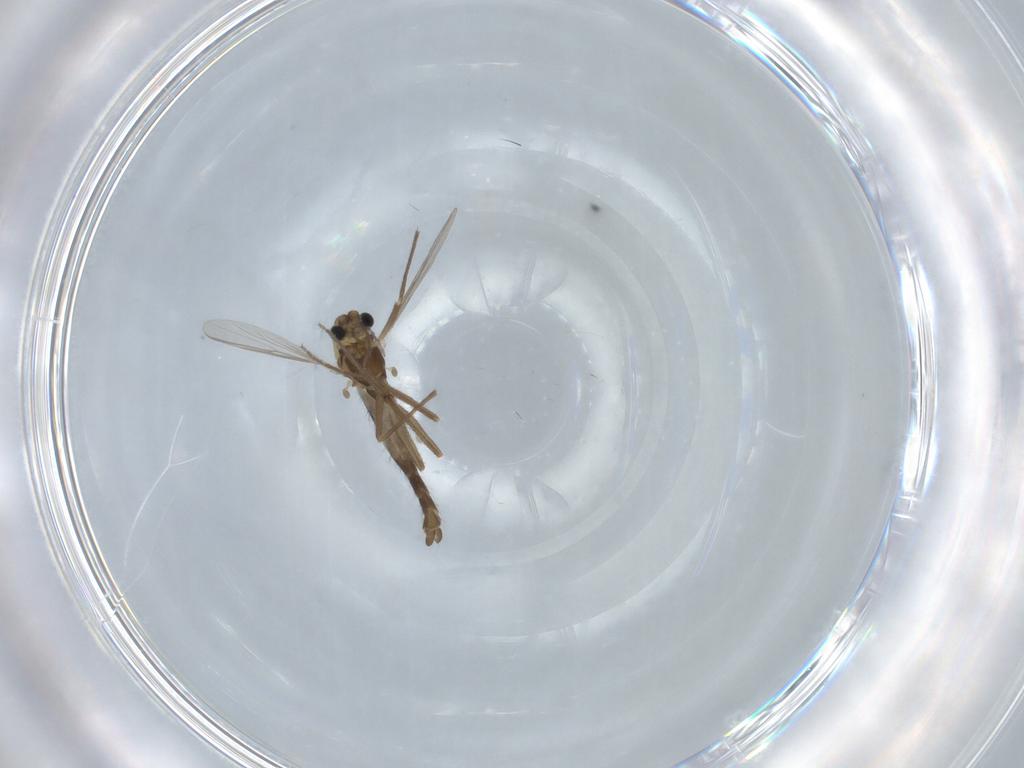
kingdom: Animalia
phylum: Arthropoda
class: Insecta
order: Diptera
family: Chironomidae
